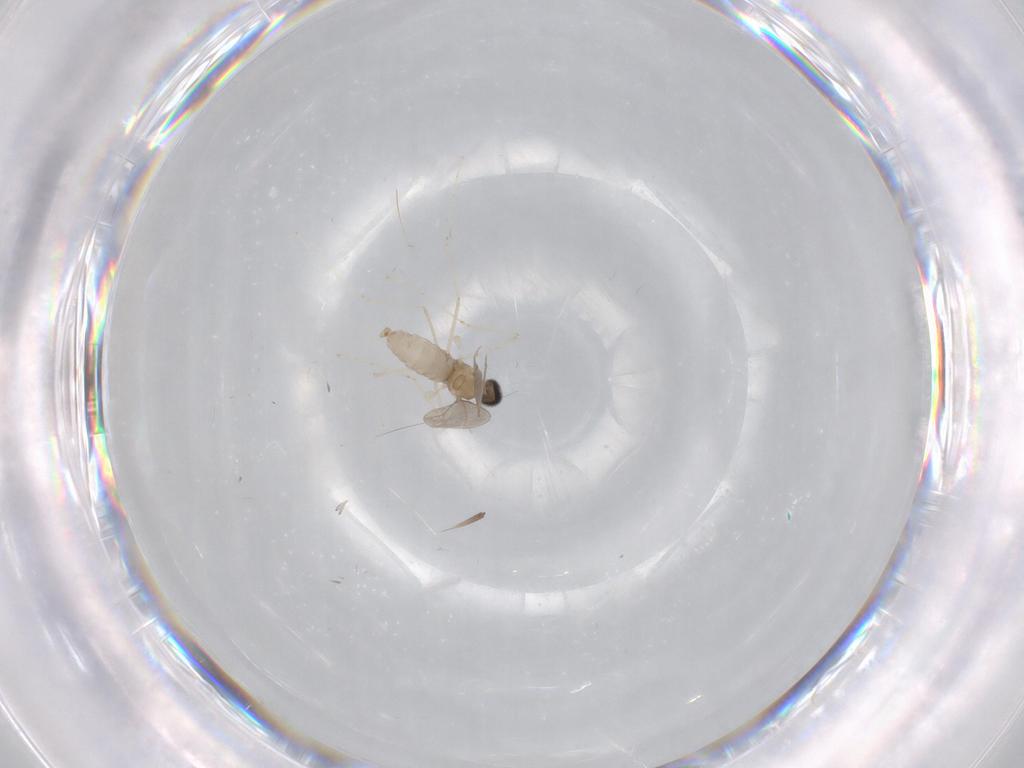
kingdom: Animalia
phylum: Arthropoda
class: Insecta
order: Diptera
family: Cecidomyiidae
